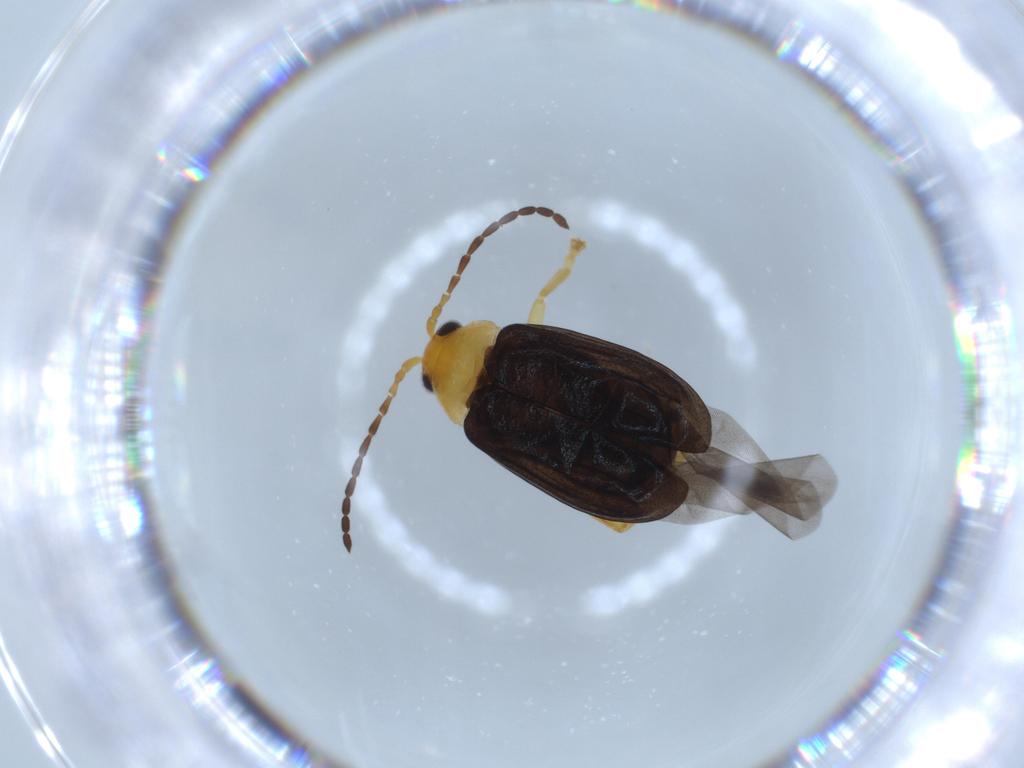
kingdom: Animalia
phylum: Arthropoda
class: Insecta
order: Coleoptera
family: Chrysomelidae
